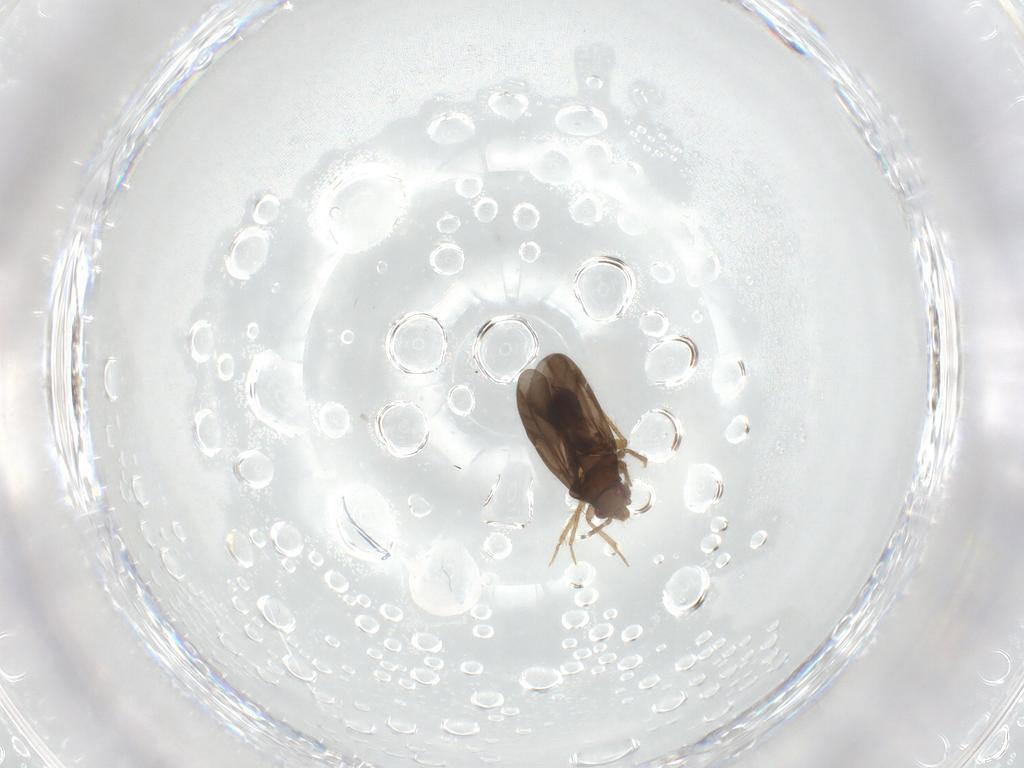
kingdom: Animalia
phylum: Arthropoda
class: Insecta
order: Hemiptera
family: Ceratocombidae
